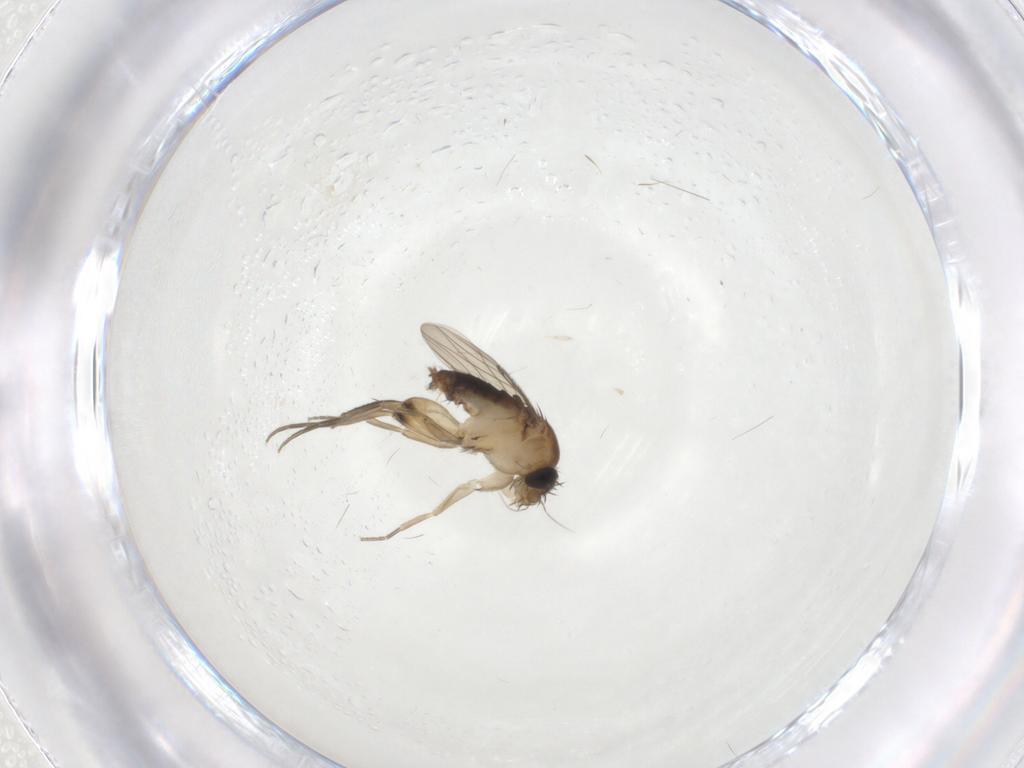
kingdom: Animalia
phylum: Arthropoda
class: Insecta
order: Diptera
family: Phoridae
